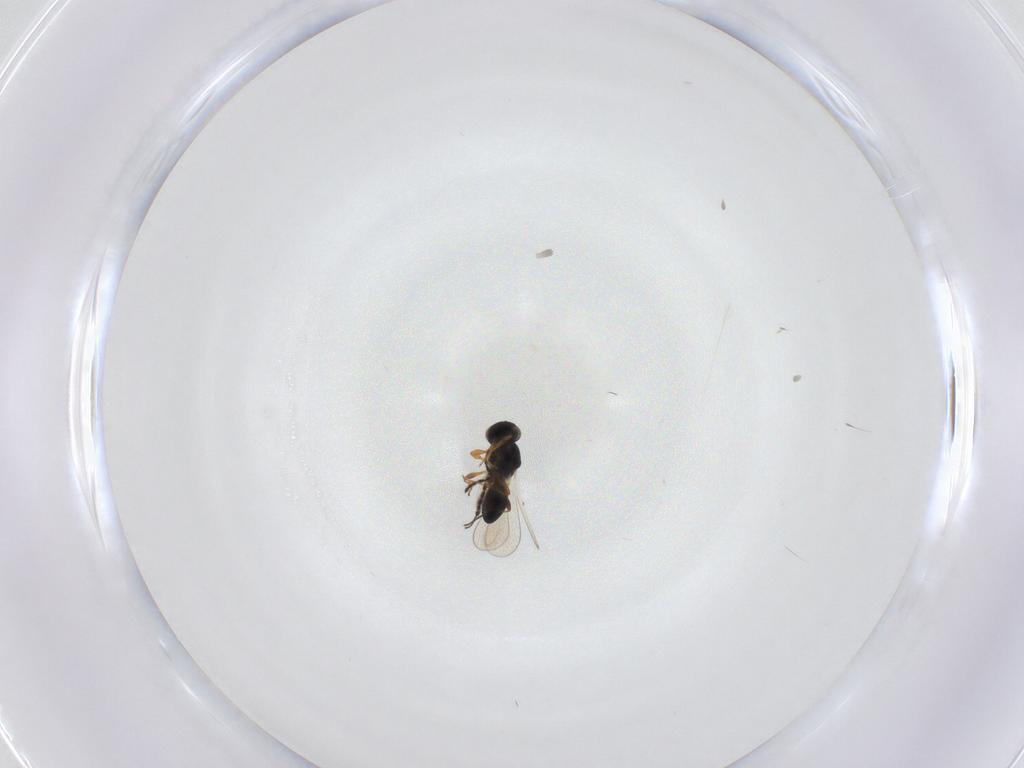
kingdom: Animalia
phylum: Arthropoda
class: Insecta
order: Hymenoptera
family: Platygastridae
